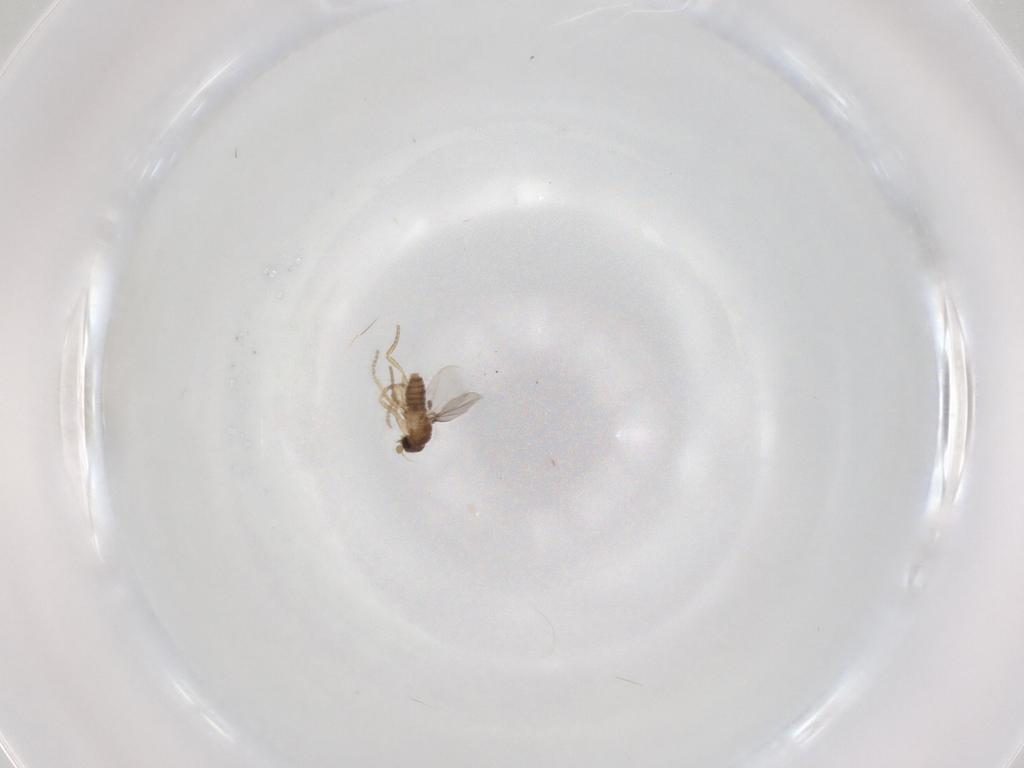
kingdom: Animalia
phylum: Arthropoda
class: Insecta
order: Diptera
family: Phoridae
